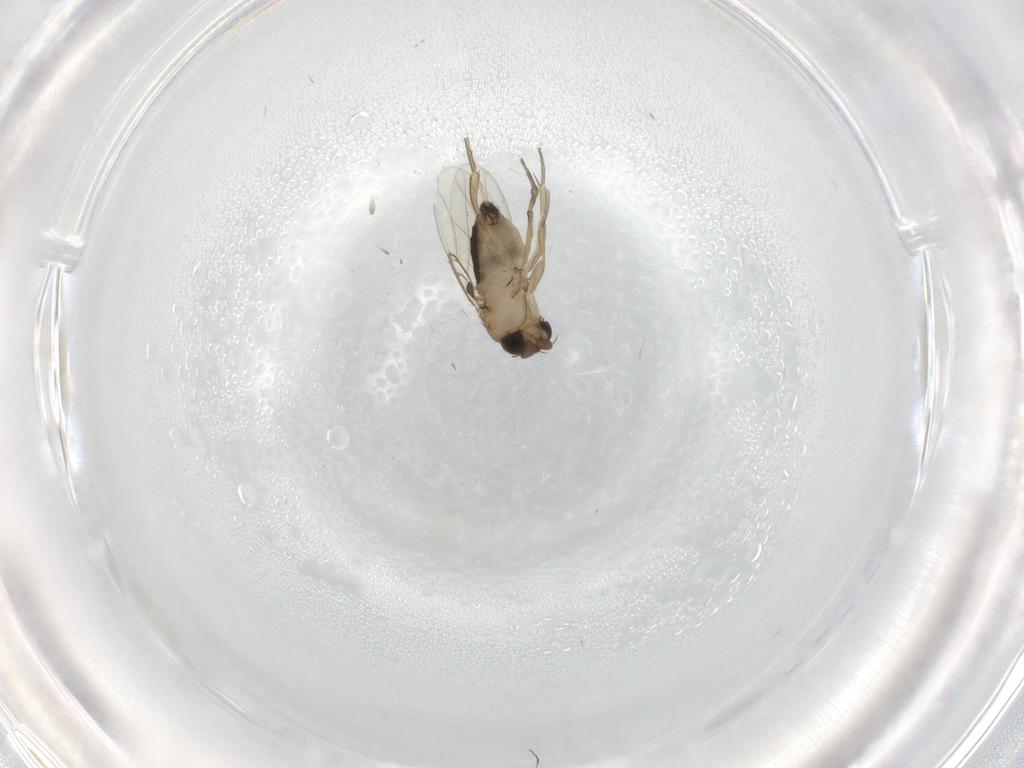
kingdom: Animalia
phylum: Arthropoda
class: Insecta
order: Diptera
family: Phoridae
